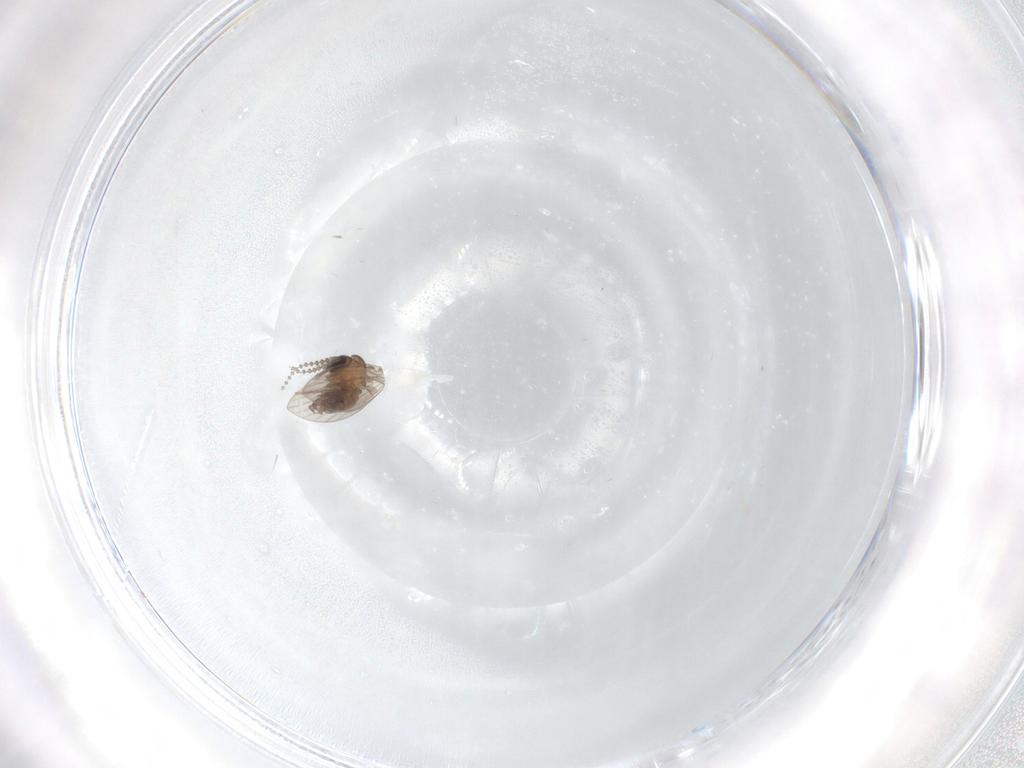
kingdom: Animalia
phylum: Arthropoda
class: Insecta
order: Diptera
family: Psychodidae
